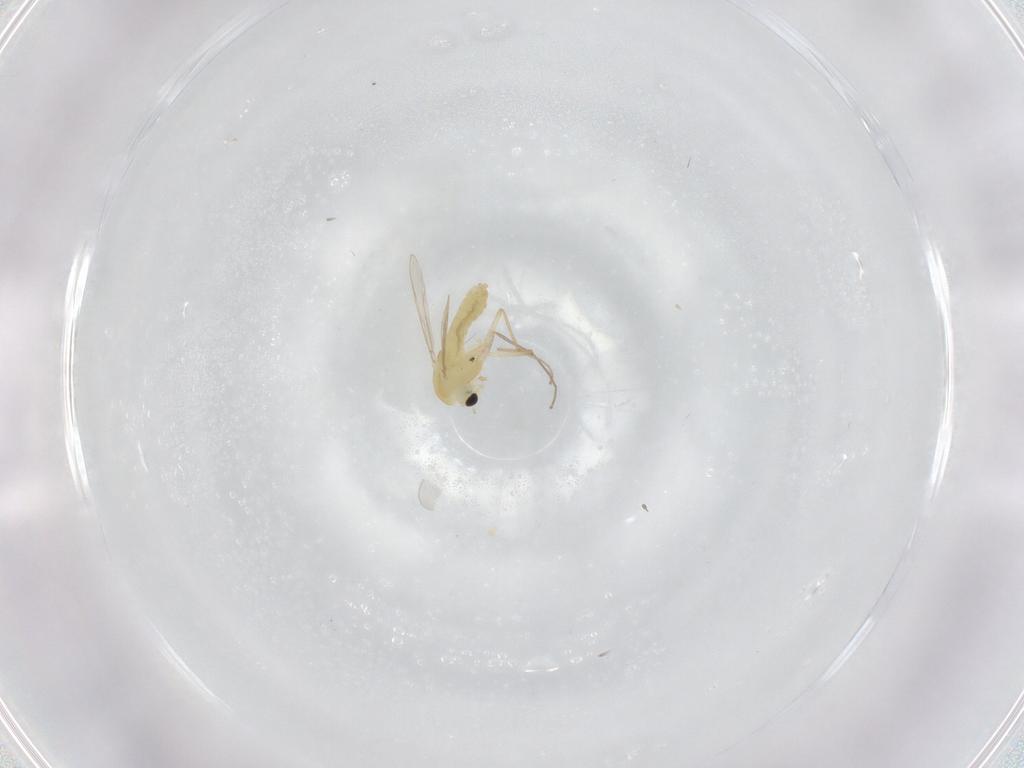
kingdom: Animalia
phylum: Arthropoda
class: Insecta
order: Diptera
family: Chironomidae
